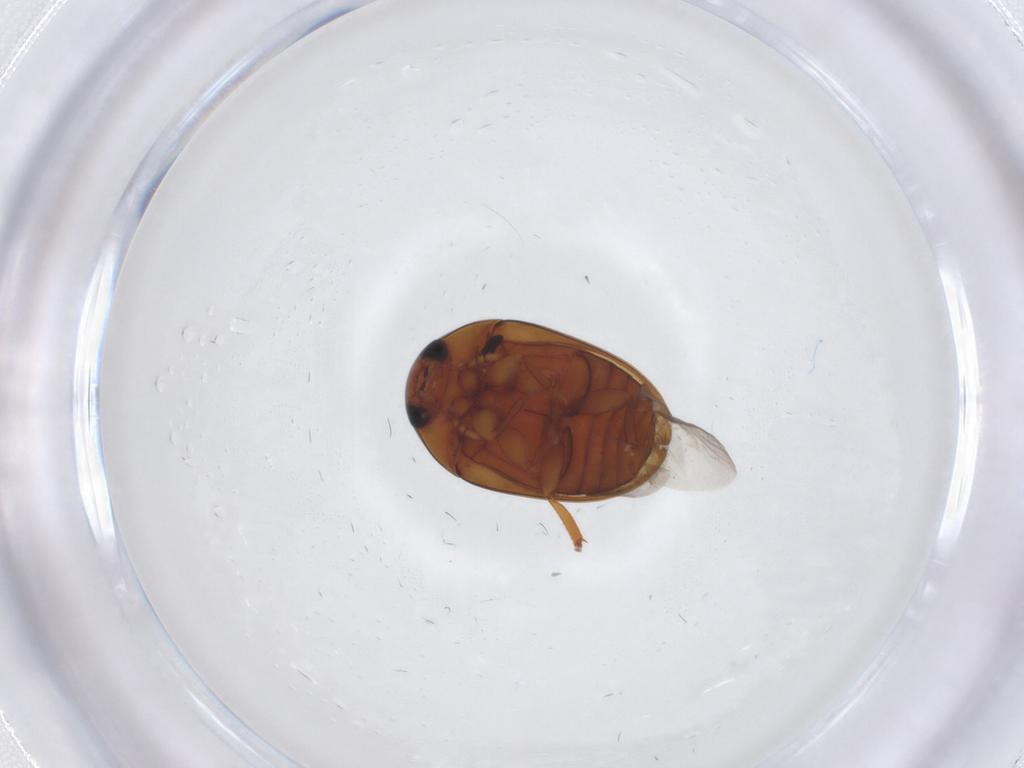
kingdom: Animalia
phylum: Arthropoda
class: Insecta
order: Coleoptera
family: Phalacridae
